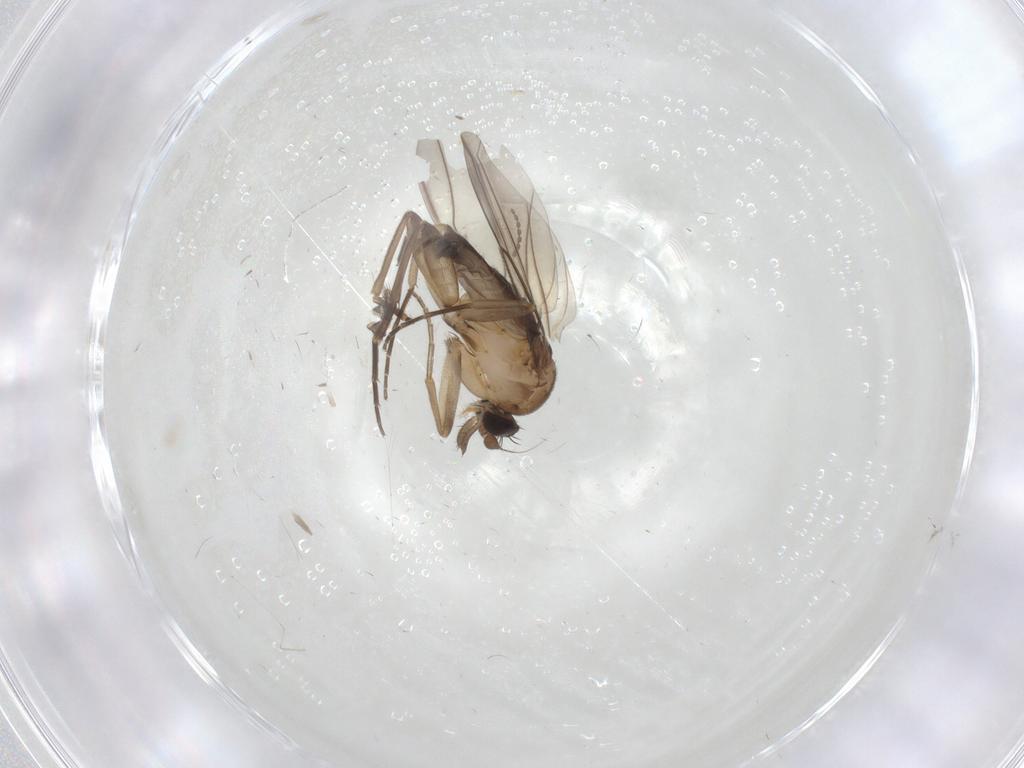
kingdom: Animalia
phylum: Arthropoda
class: Insecta
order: Diptera
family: Phoridae
